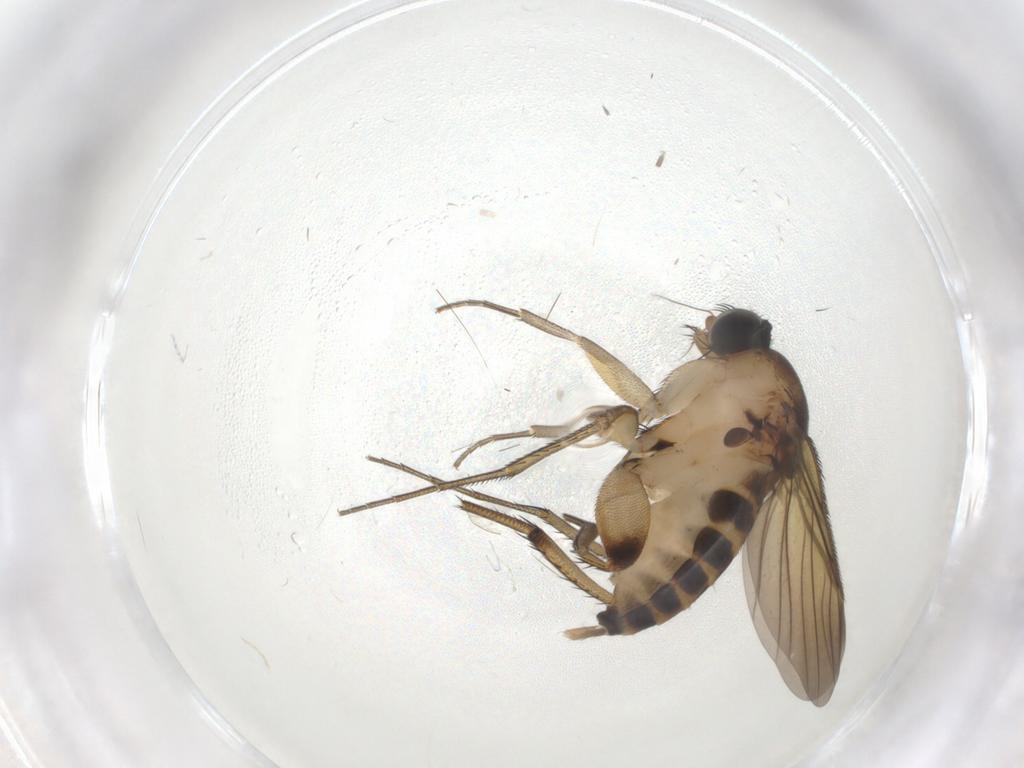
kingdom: Animalia
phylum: Arthropoda
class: Insecta
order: Diptera
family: Phoridae
